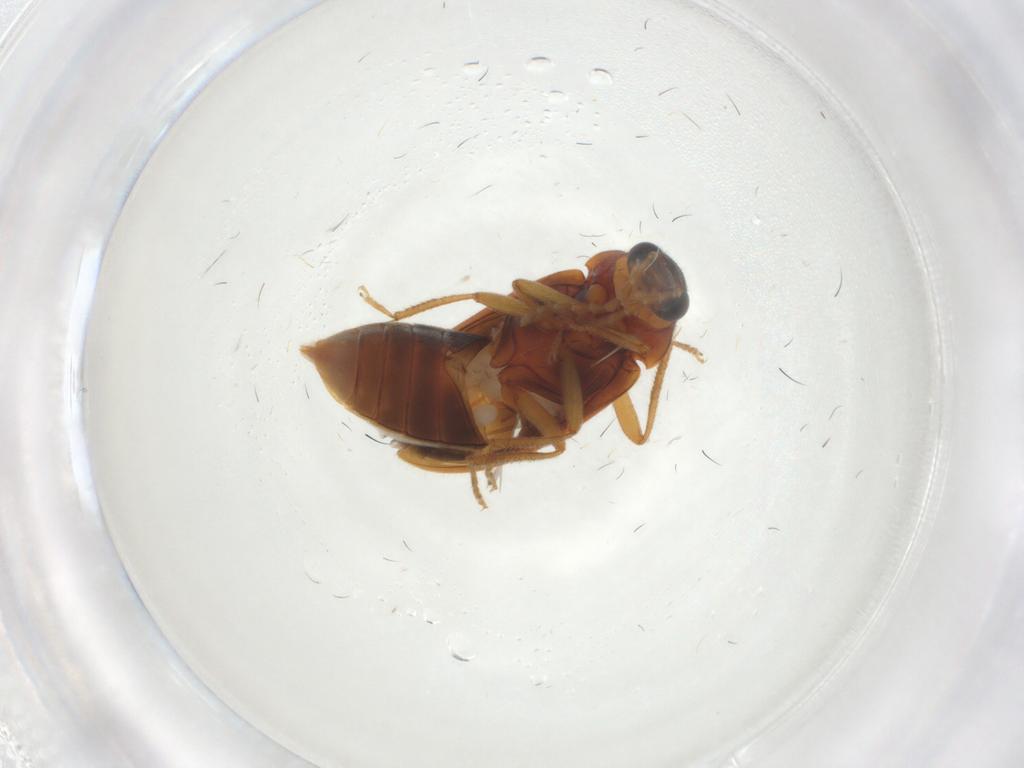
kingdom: Animalia
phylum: Arthropoda
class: Insecta
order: Coleoptera
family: Ptilodactylidae
